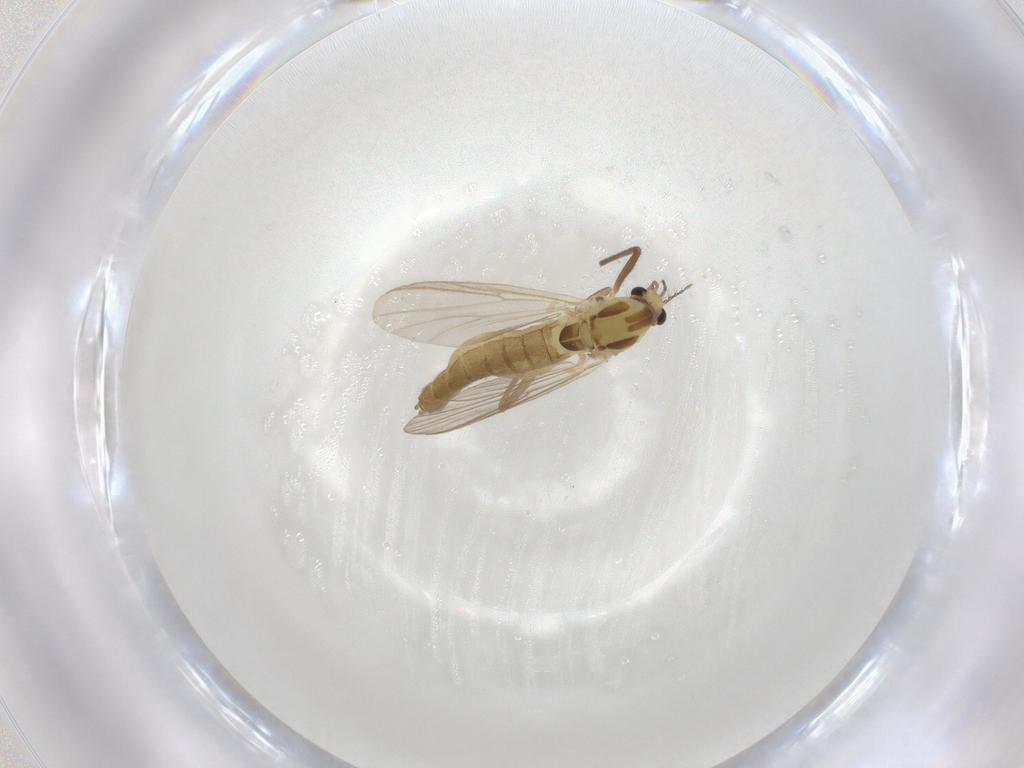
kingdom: Animalia
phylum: Arthropoda
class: Insecta
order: Diptera
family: Chironomidae
